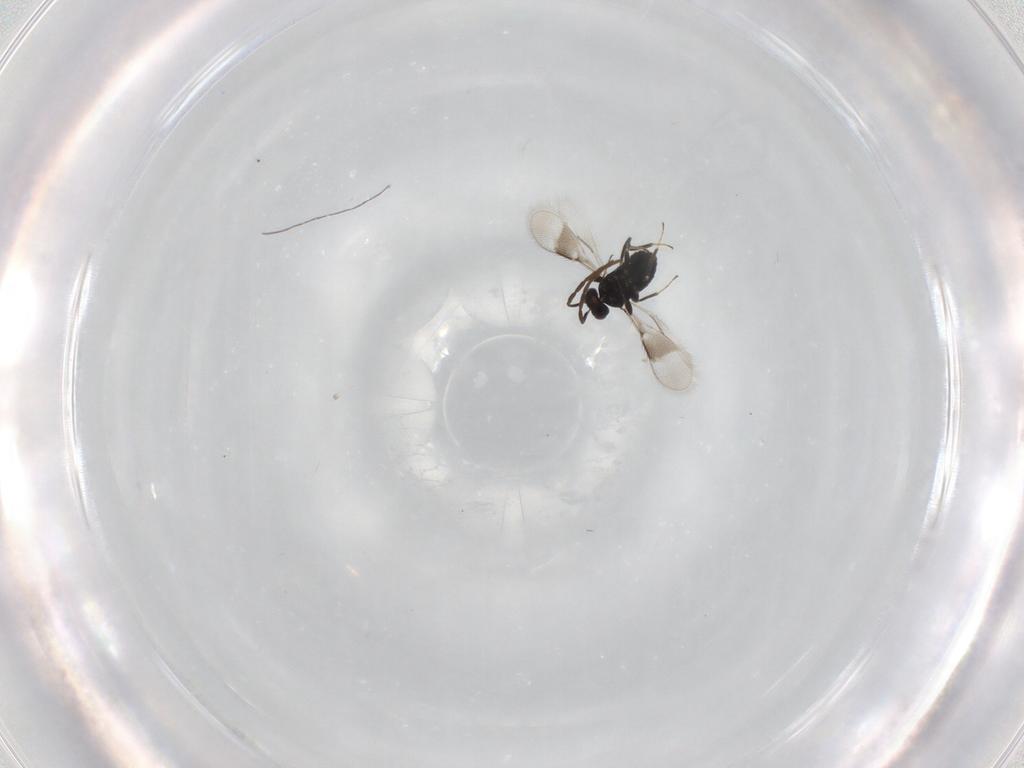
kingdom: Animalia
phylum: Arthropoda
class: Insecta
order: Hymenoptera
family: Azotidae
